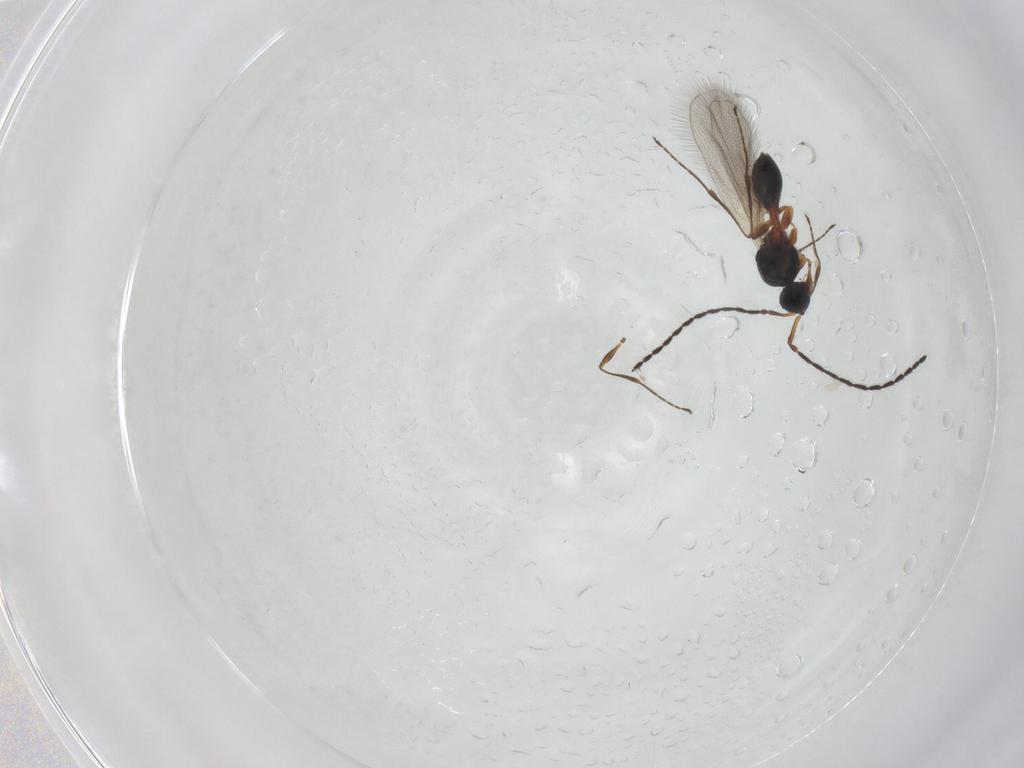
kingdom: Animalia
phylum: Arthropoda
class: Insecta
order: Hymenoptera
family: Diapriidae
